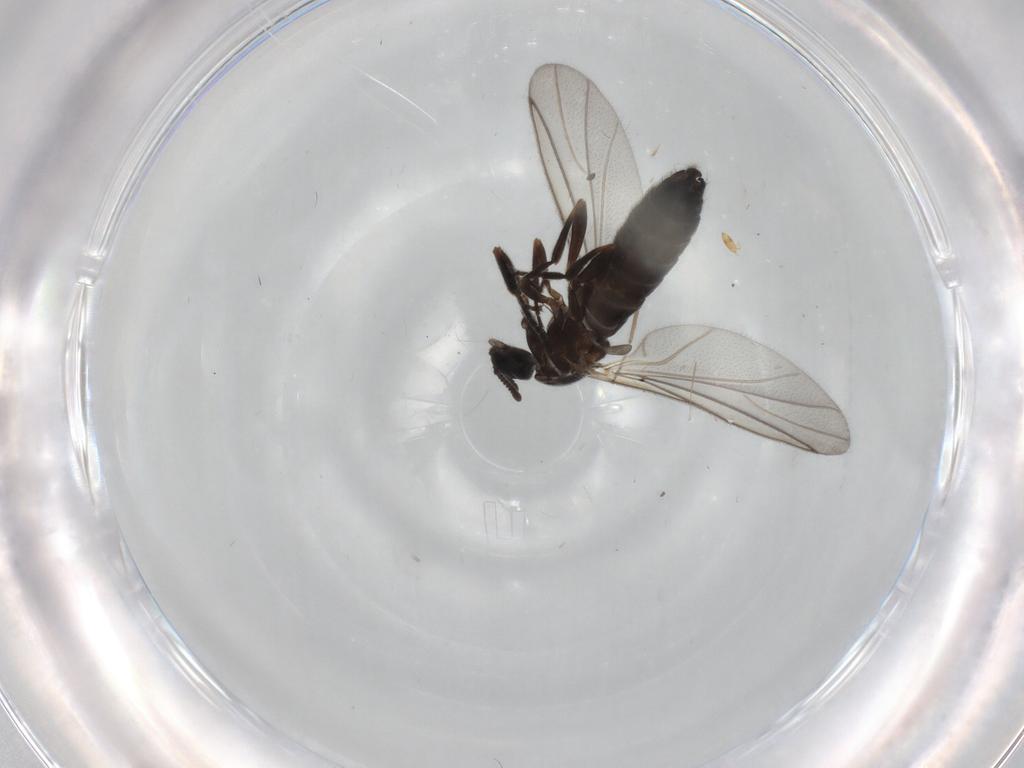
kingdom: Animalia
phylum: Arthropoda
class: Insecta
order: Diptera
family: Scatopsidae
